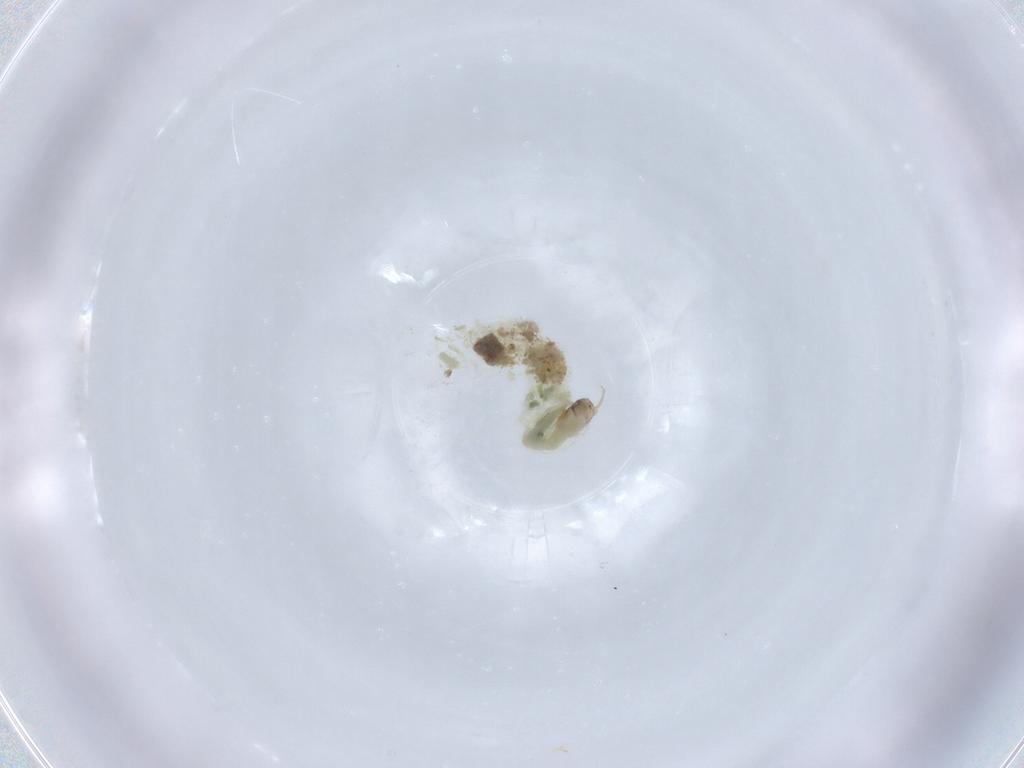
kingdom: Animalia
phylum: Arthropoda
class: Insecta
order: Diptera
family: Chironomidae
